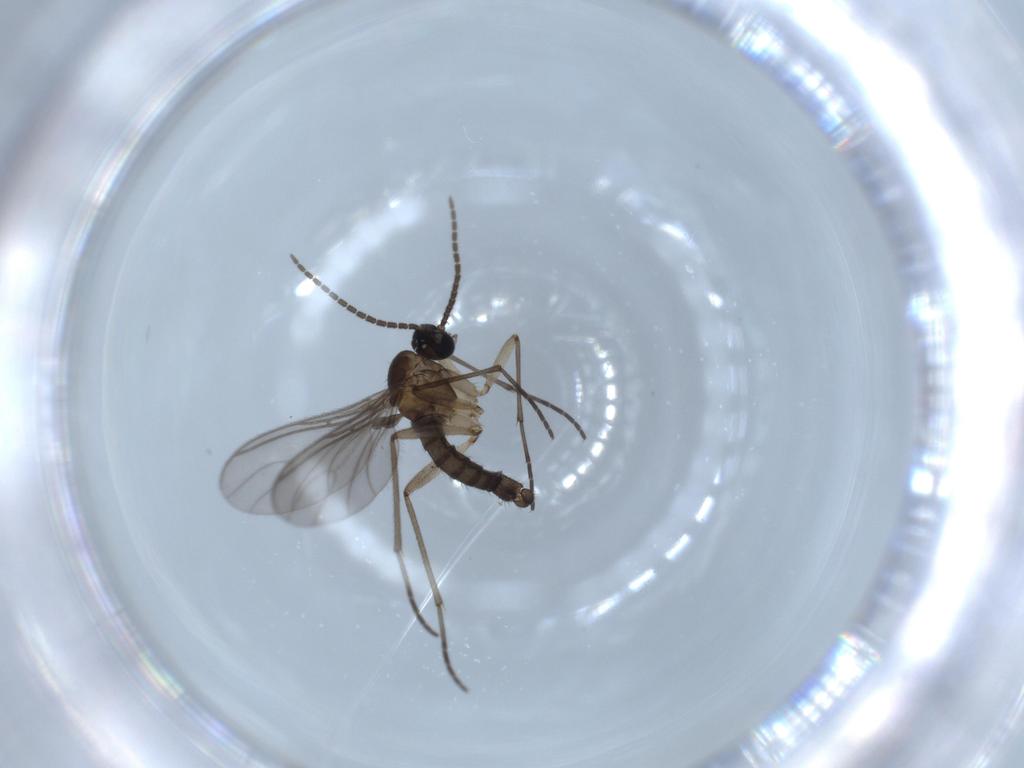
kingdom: Animalia
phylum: Arthropoda
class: Insecta
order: Diptera
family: Sciaridae
